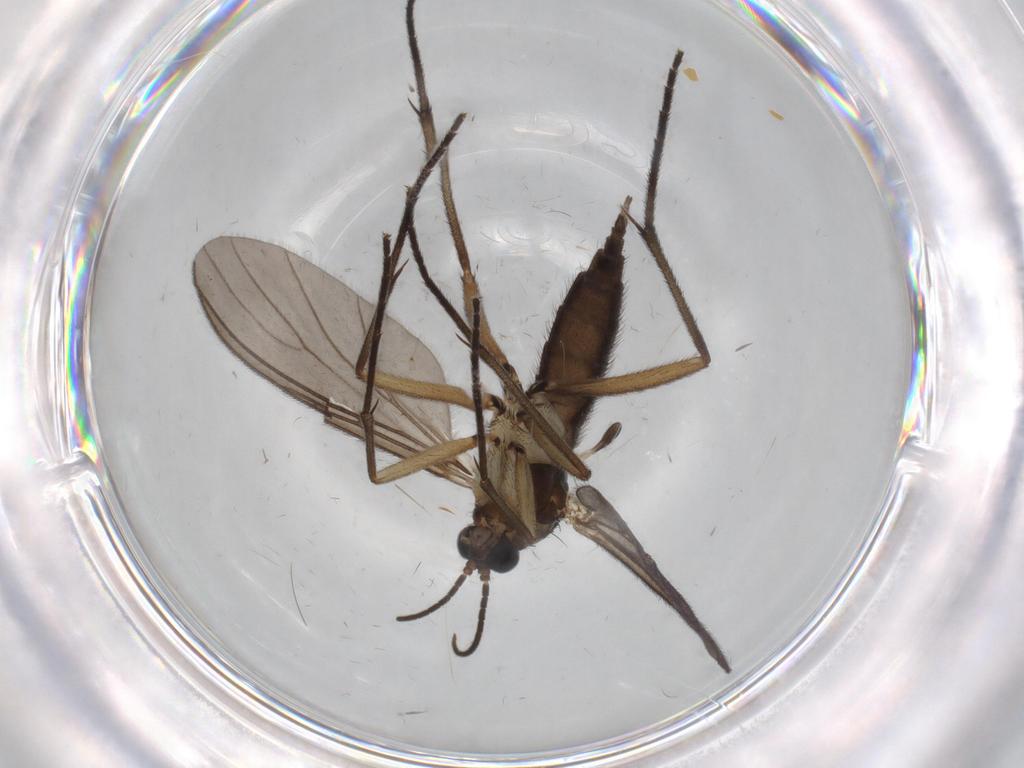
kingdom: Animalia
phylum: Arthropoda
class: Insecta
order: Diptera
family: Sciaridae
